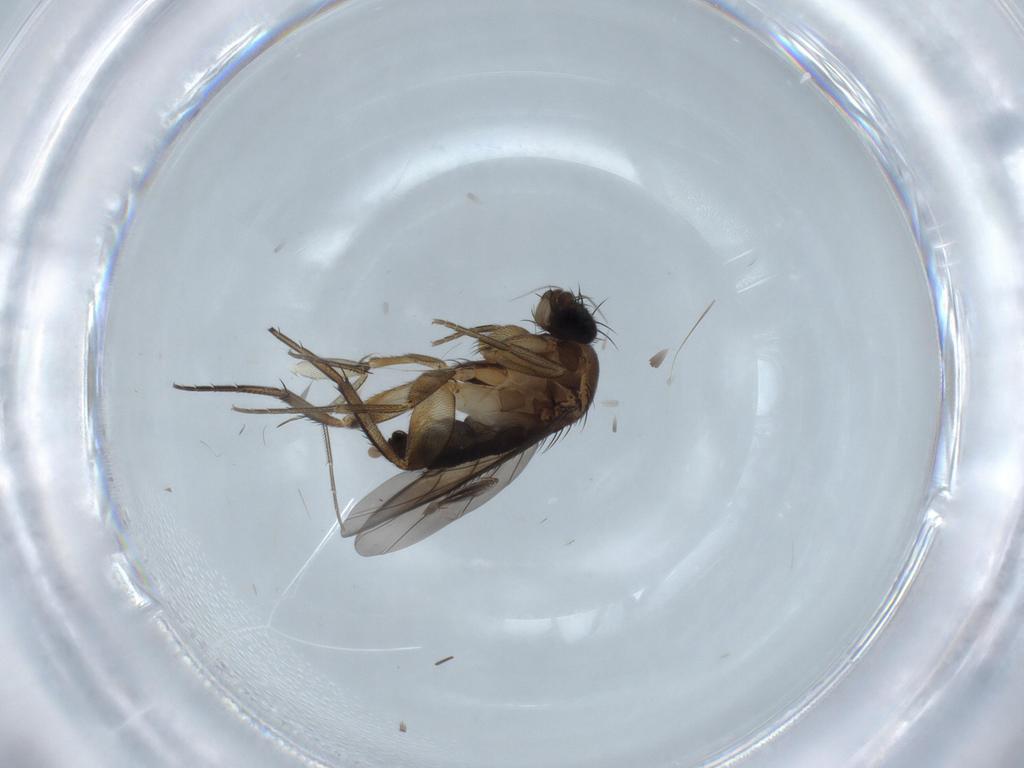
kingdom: Animalia
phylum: Arthropoda
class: Insecta
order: Diptera
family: Phoridae
